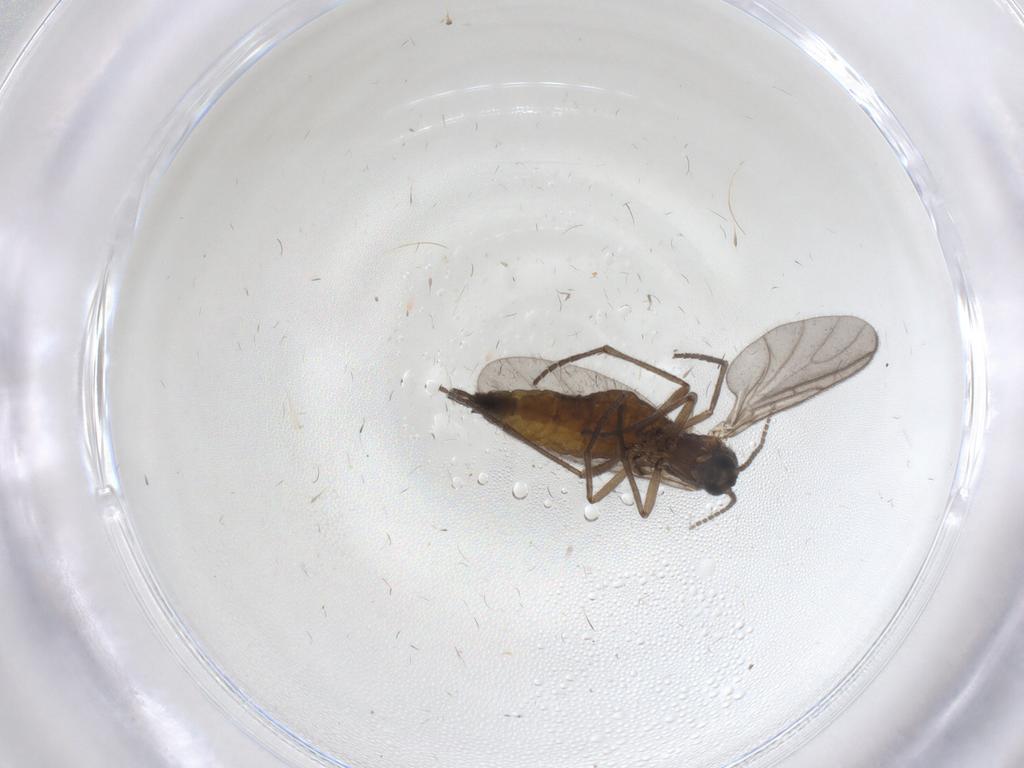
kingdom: Animalia
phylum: Arthropoda
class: Insecta
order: Diptera
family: Sciaridae
